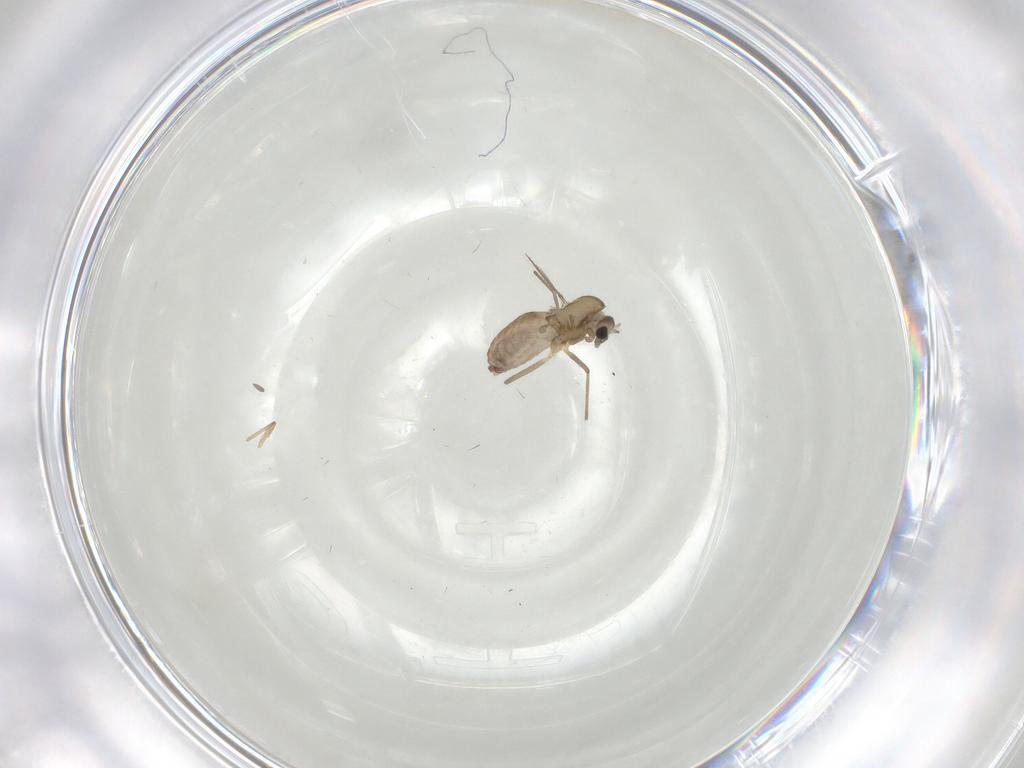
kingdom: Animalia
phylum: Arthropoda
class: Insecta
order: Diptera
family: Chironomidae
